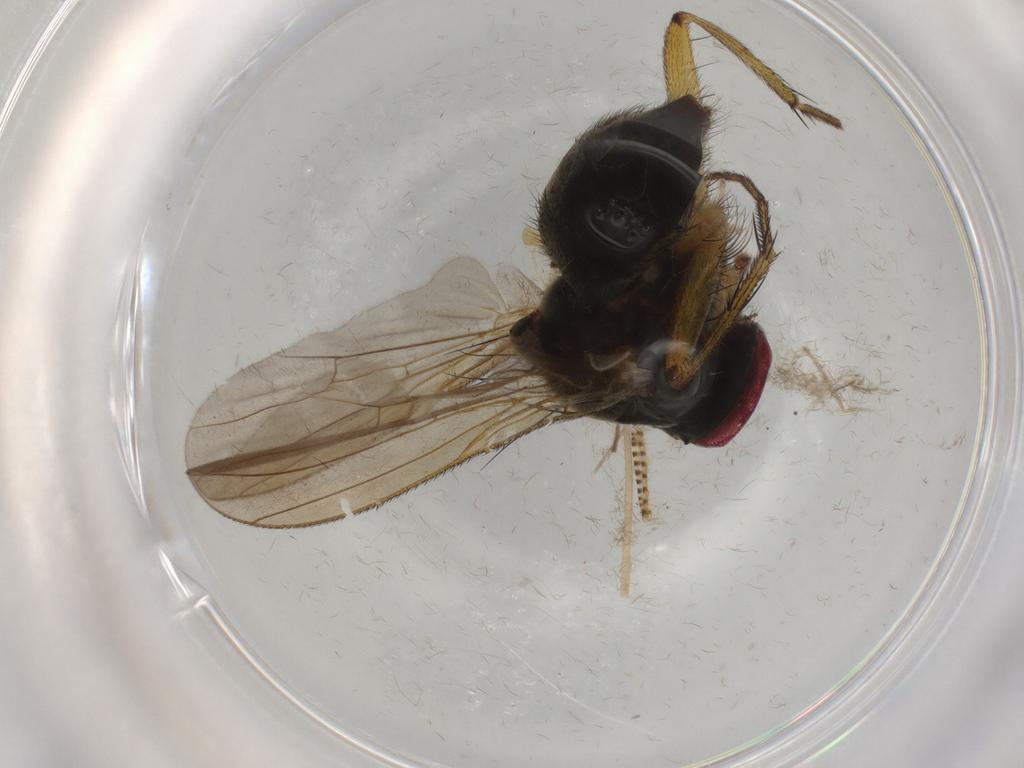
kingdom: Animalia
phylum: Arthropoda
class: Insecta
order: Diptera
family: Muscidae
